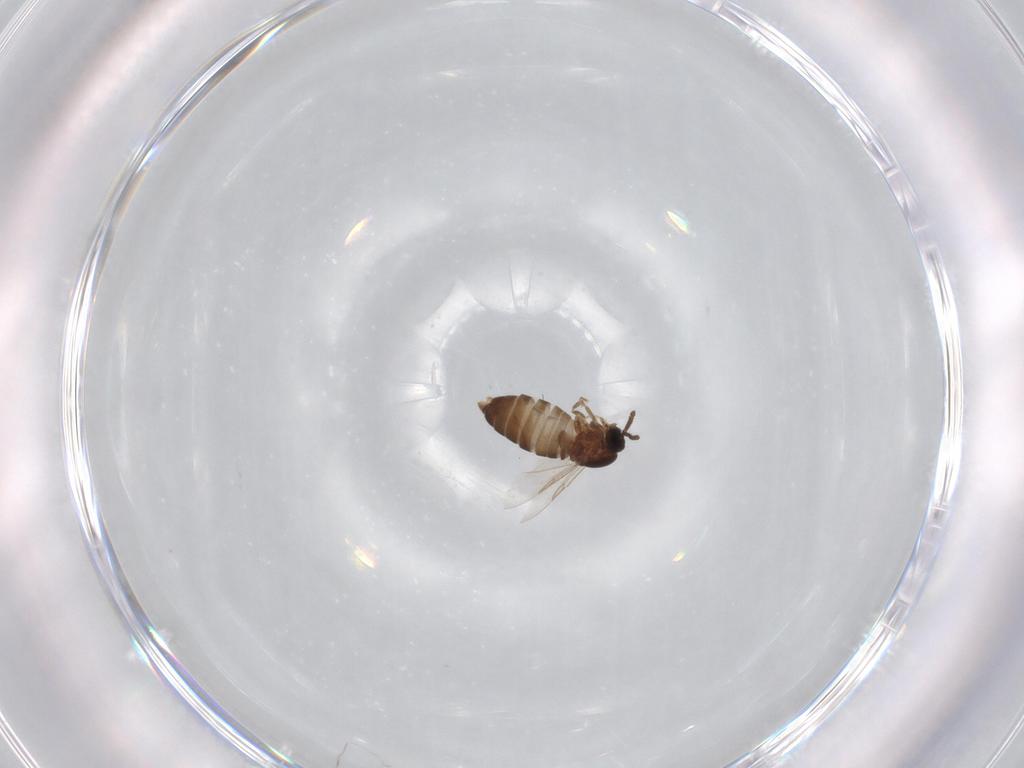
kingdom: Animalia
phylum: Arthropoda
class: Insecta
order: Diptera
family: Scatopsidae
